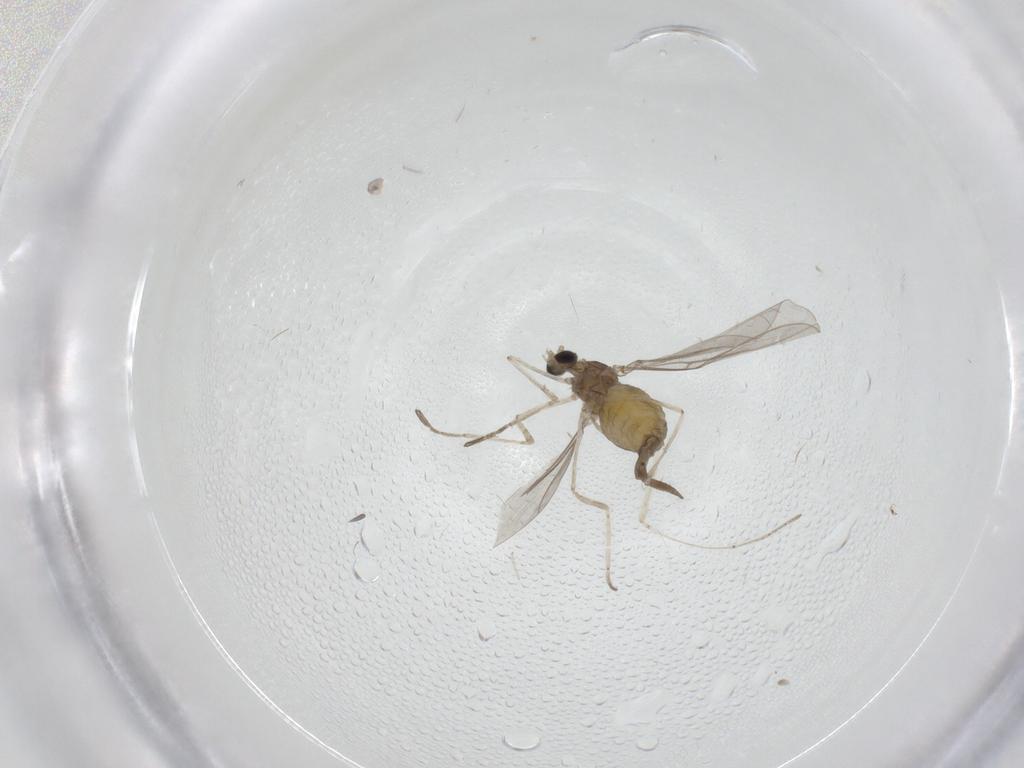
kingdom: Animalia
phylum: Arthropoda
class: Insecta
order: Diptera
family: Cecidomyiidae
